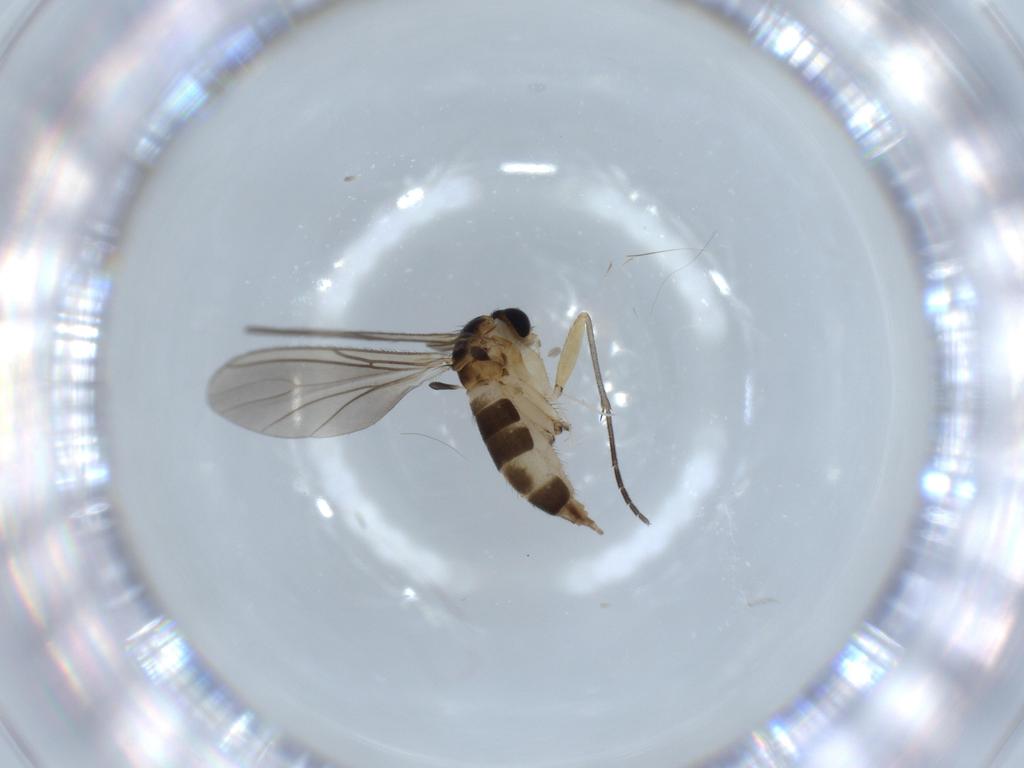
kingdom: Animalia
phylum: Arthropoda
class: Insecta
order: Diptera
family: Sciaridae
